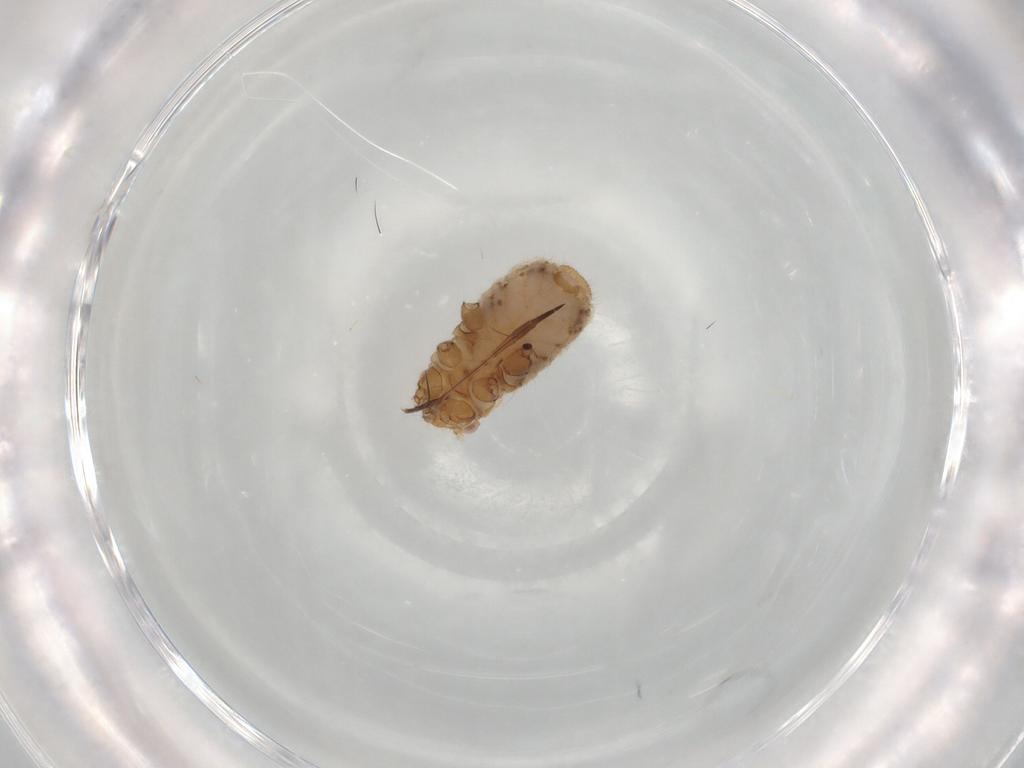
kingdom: Animalia
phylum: Arthropoda
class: Insecta
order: Hemiptera
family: Aphididae
